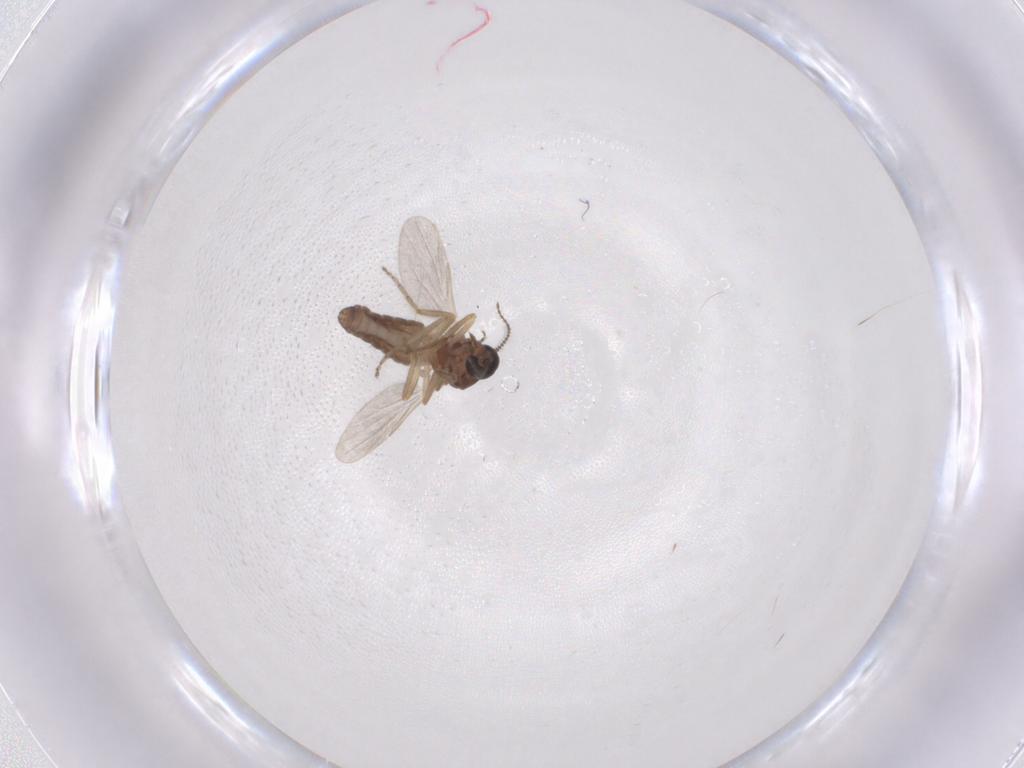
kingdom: Animalia
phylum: Arthropoda
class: Insecta
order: Diptera
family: Ceratopogonidae
